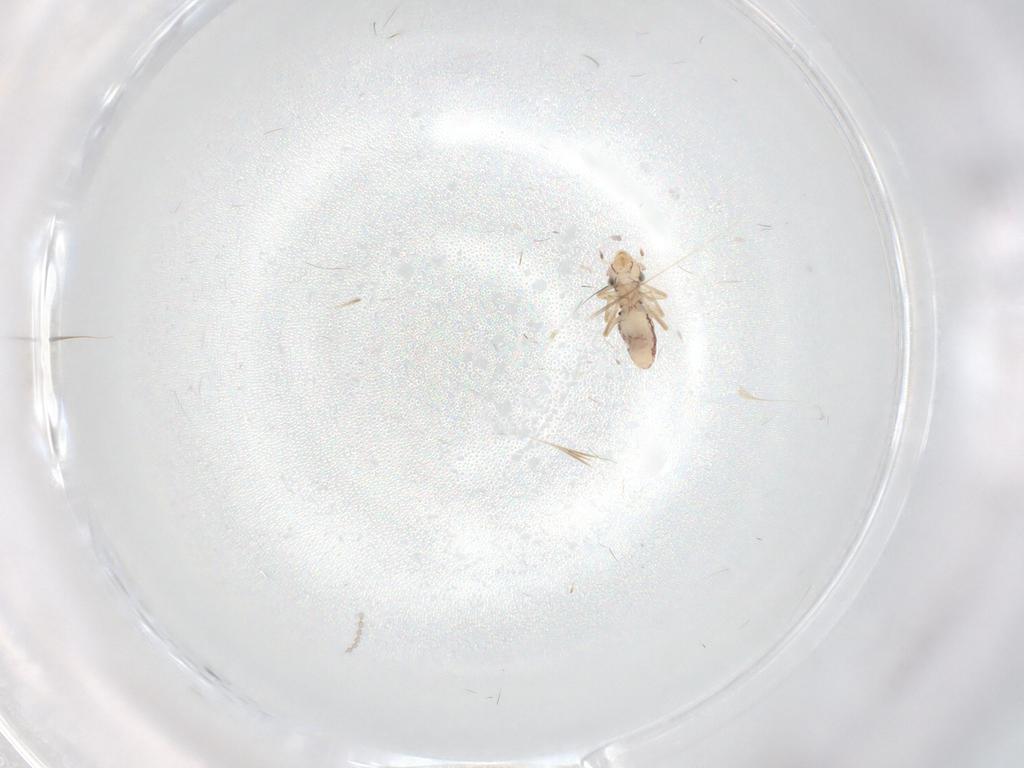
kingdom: Animalia
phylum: Arthropoda
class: Insecta
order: Psocodea
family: Lepidopsocidae
